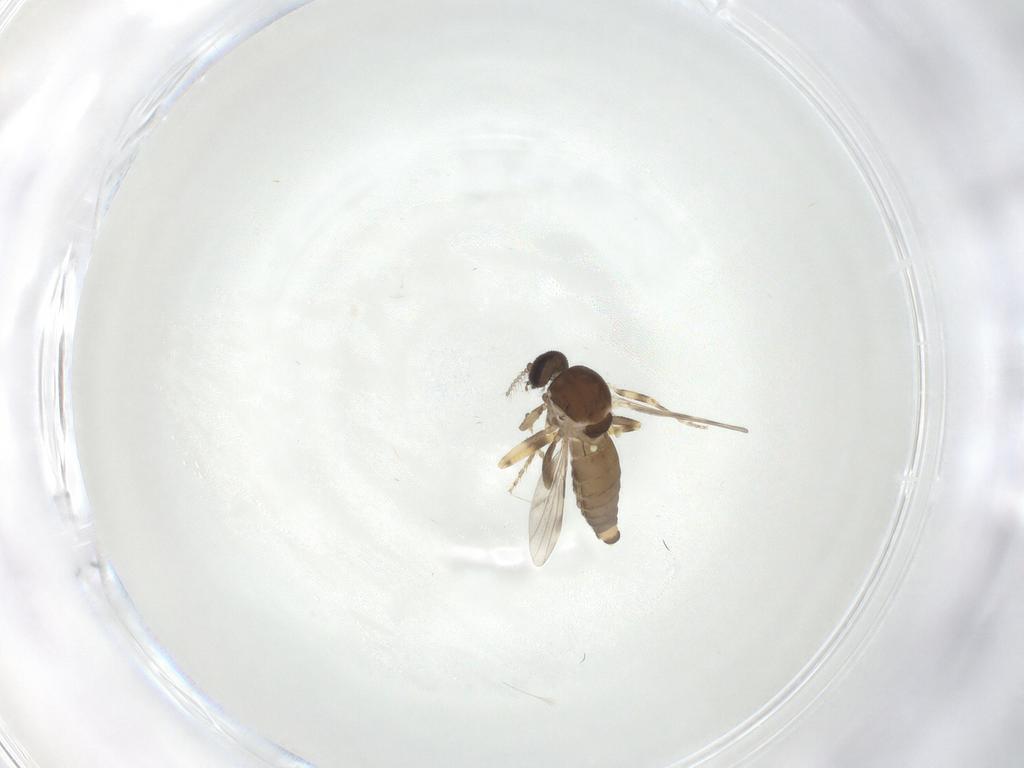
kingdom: Animalia
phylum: Arthropoda
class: Insecta
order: Diptera
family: Ceratopogonidae
